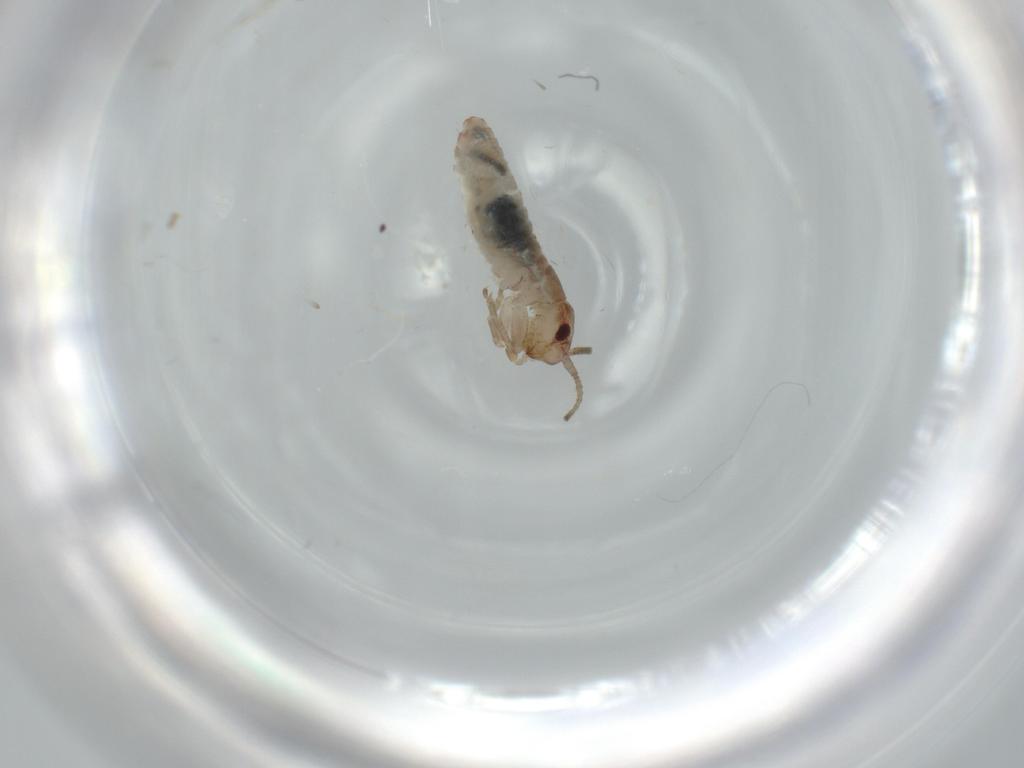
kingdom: Animalia
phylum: Arthropoda
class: Insecta
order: Orthoptera
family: Mogoplistidae
